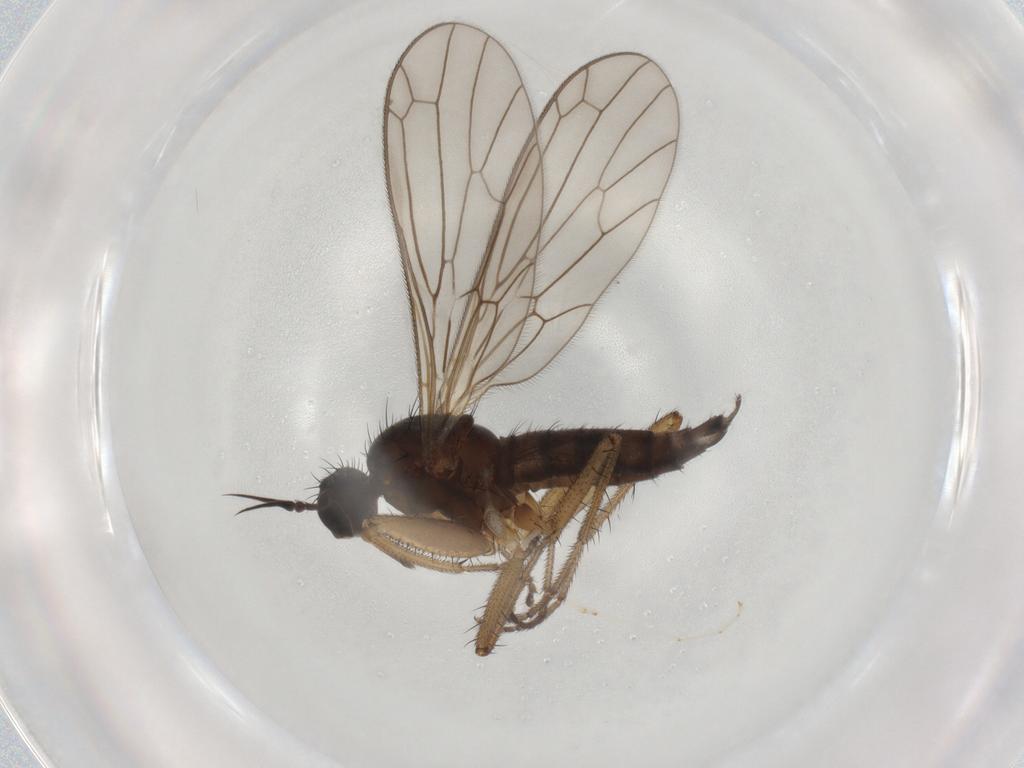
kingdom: Animalia
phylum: Arthropoda
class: Insecta
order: Diptera
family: Empididae
